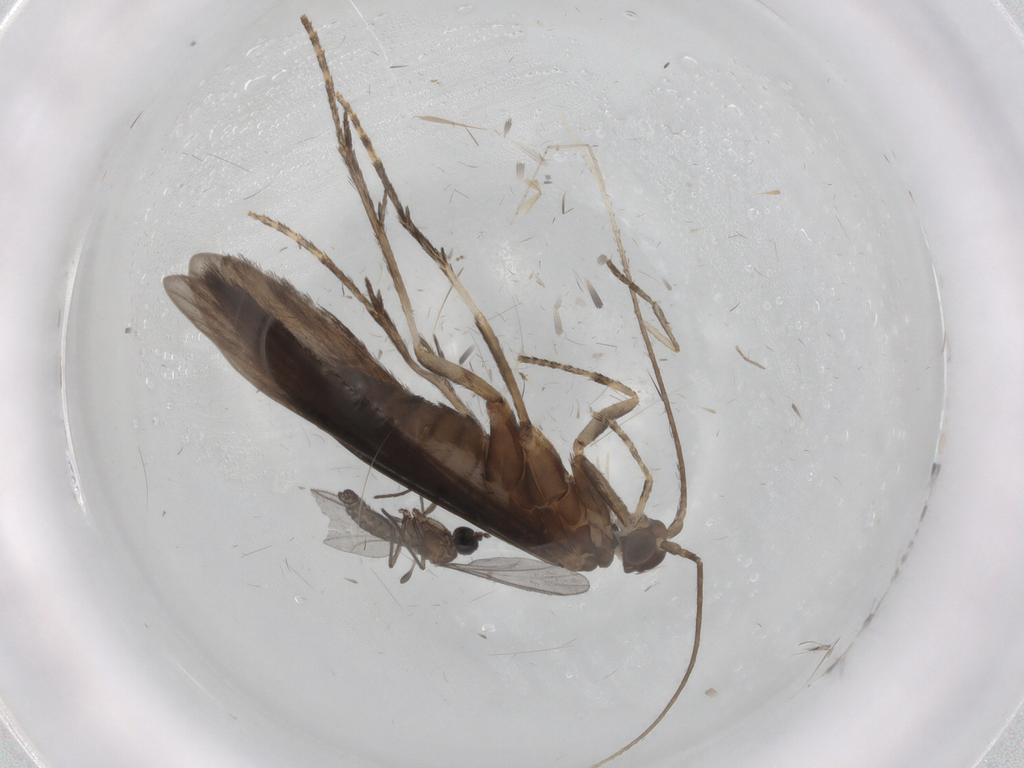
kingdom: Animalia
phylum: Arthropoda
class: Insecta
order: Trichoptera
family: Xiphocentronidae
